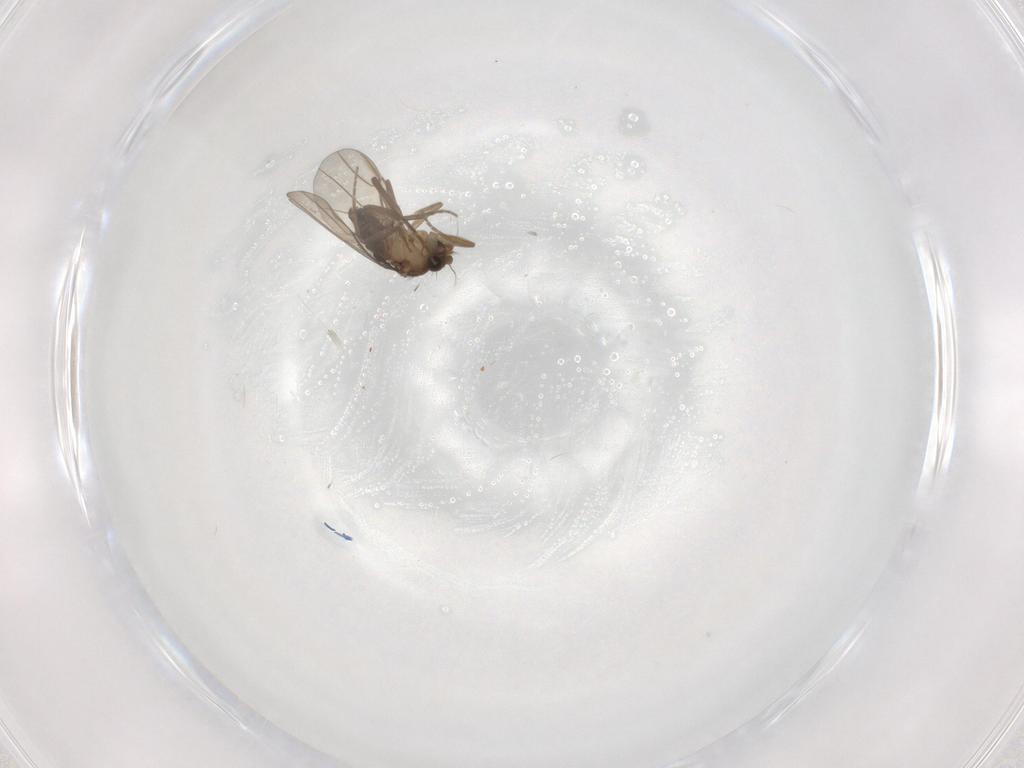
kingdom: Animalia
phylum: Arthropoda
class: Insecta
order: Diptera
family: Phoridae
